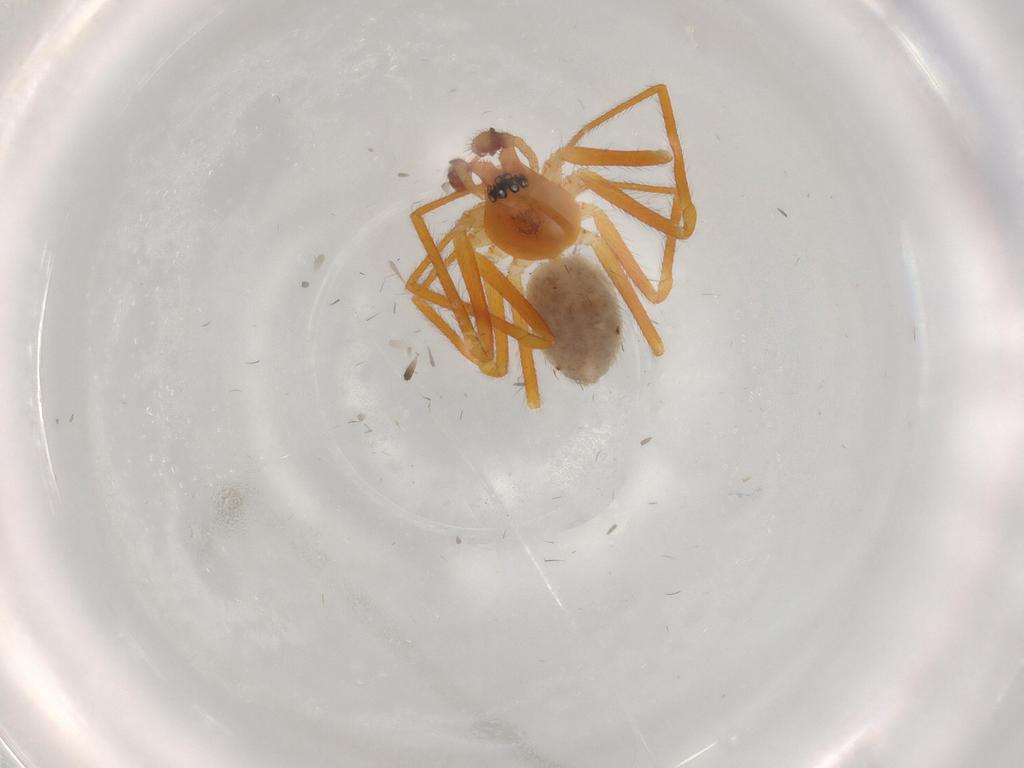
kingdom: Animalia
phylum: Arthropoda
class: Arachnida
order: Araneae
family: Linyphiidae
